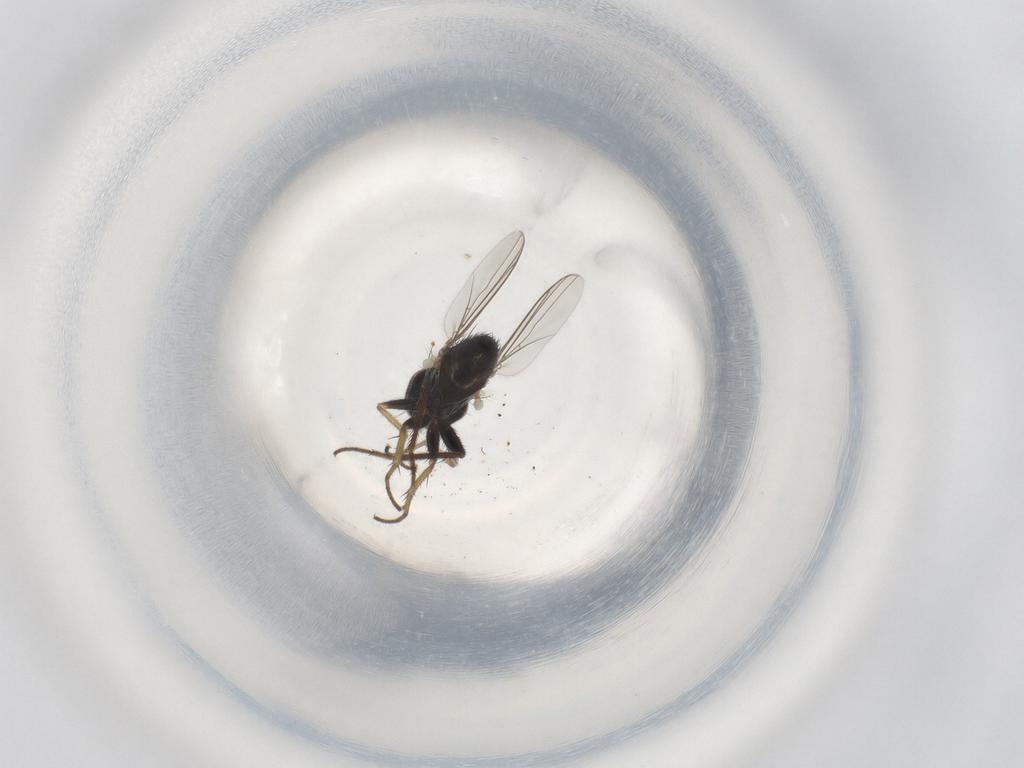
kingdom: Animalia
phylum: Arthropoda
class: Insecta
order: Diptera
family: Dolichopodidae
